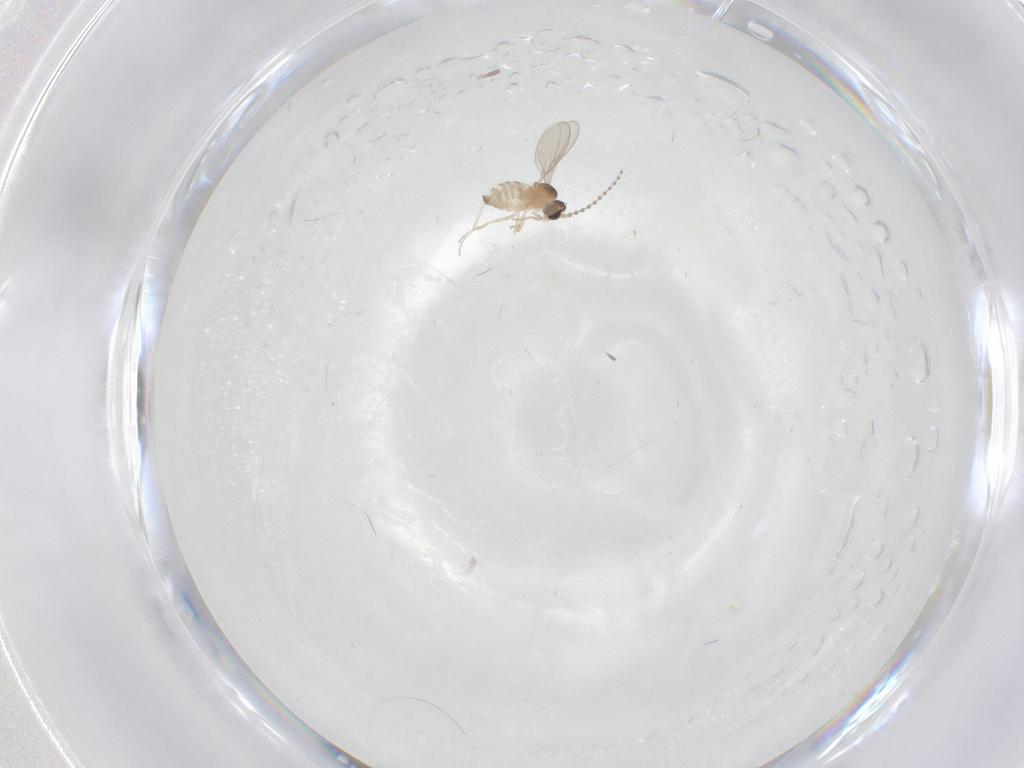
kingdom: Animalia
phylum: Arthropoda
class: Insecta
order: Diptera
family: Cecidomyiidae
